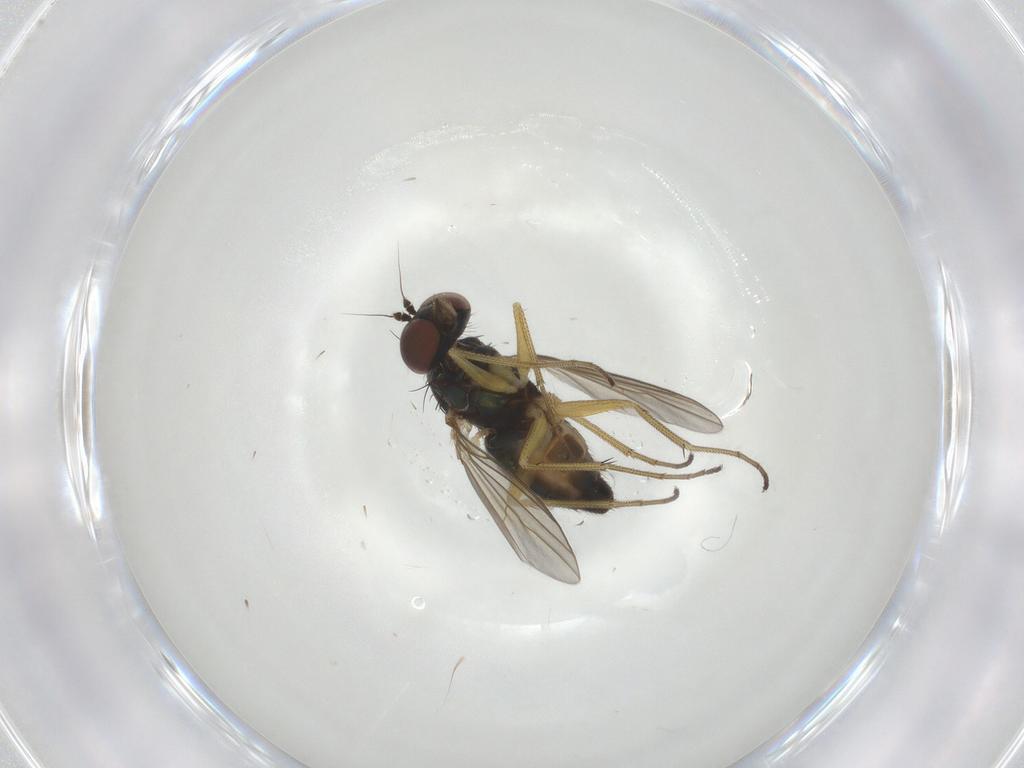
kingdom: Animalia
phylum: Arthropoda
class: Insecta
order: Diptera
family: Dolichopodidae
